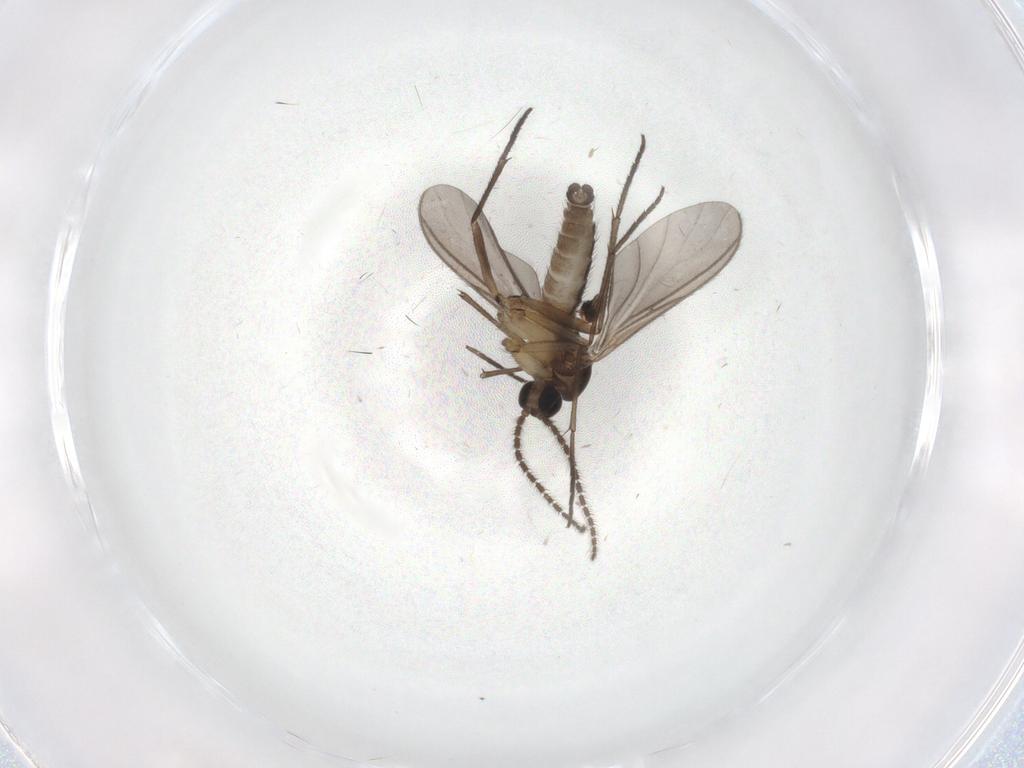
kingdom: Animalia
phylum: Arthropoda
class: Insecta
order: Diptera
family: Sciaridae
